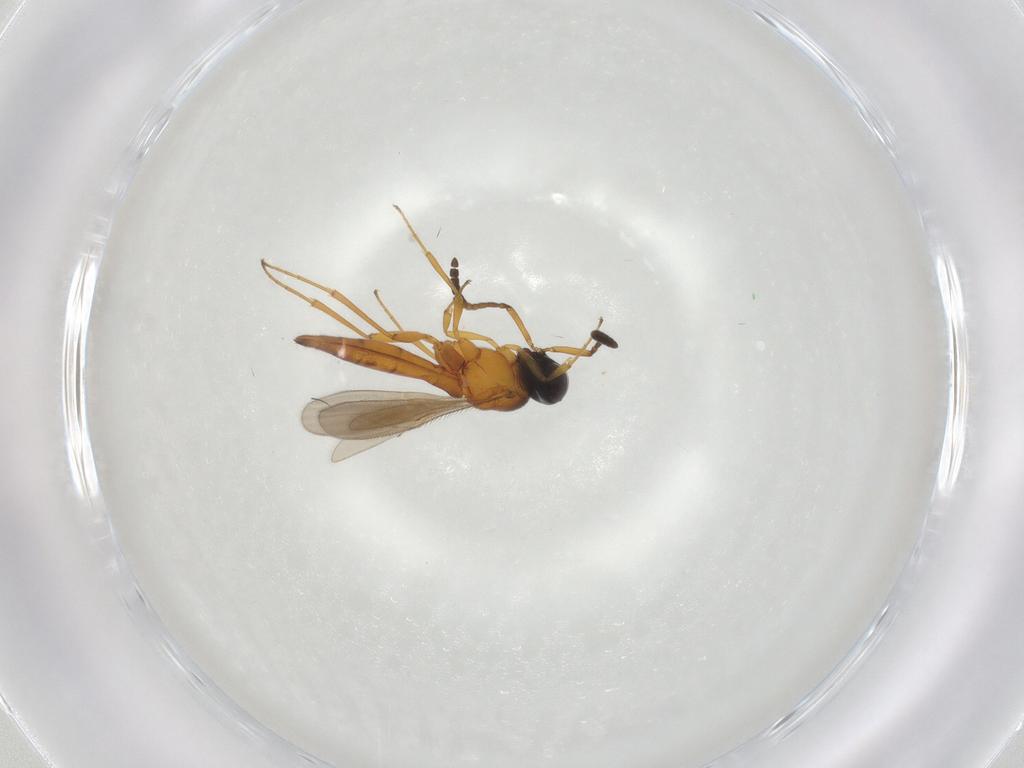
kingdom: Animalia
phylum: Arthropoda
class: Insecta
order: Hymenoptera
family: Scelionidae
